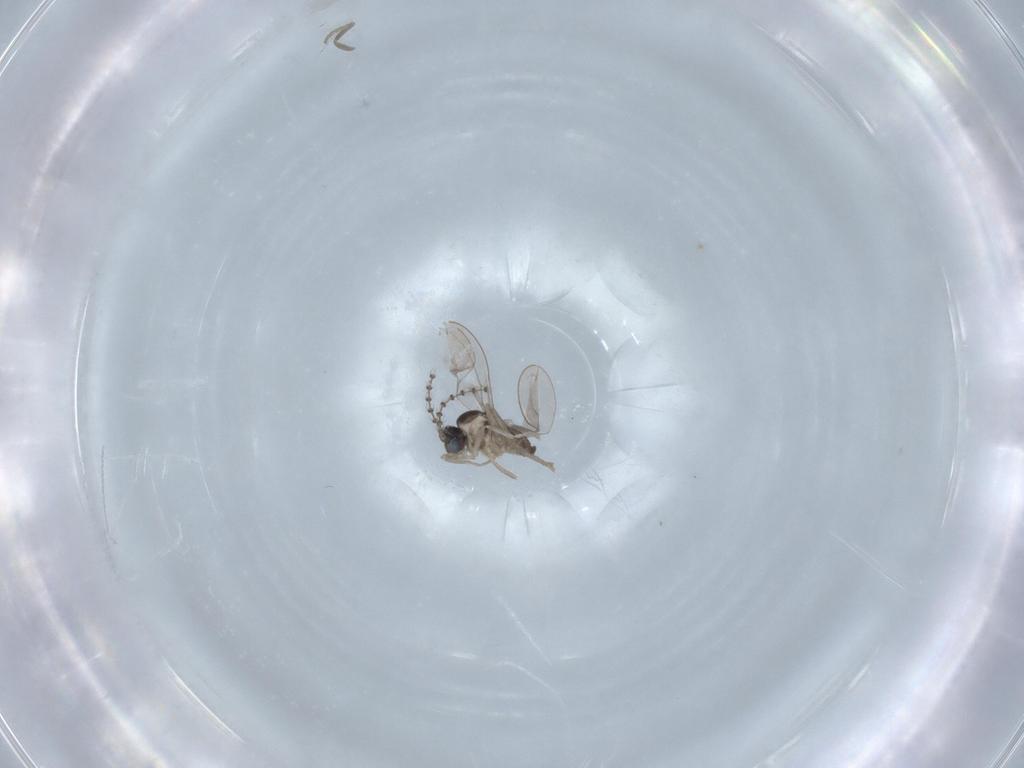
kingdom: Animalia
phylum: Arthropoda
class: Insecta
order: Diptera
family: Cecidomyiidae
